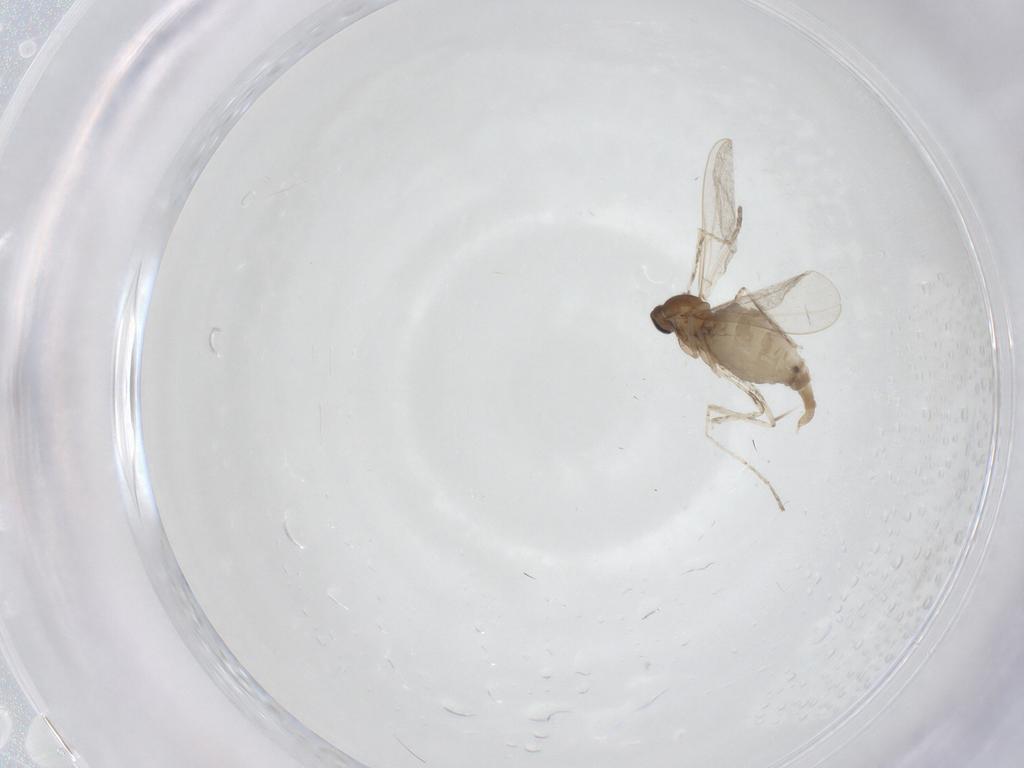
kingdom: Animalia
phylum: Arthropoda
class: Insecta
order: Diptera
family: Cecidomyiidae
